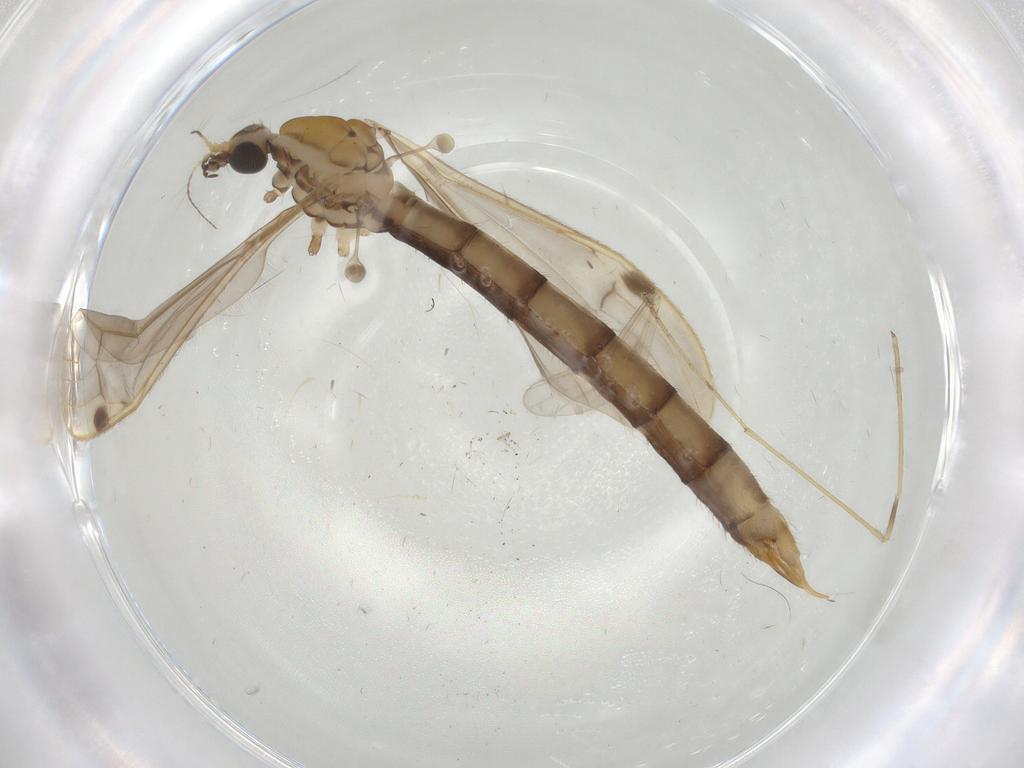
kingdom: Animalia
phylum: Arthropoda
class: Insecta
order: Diptera
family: Limoniidae
